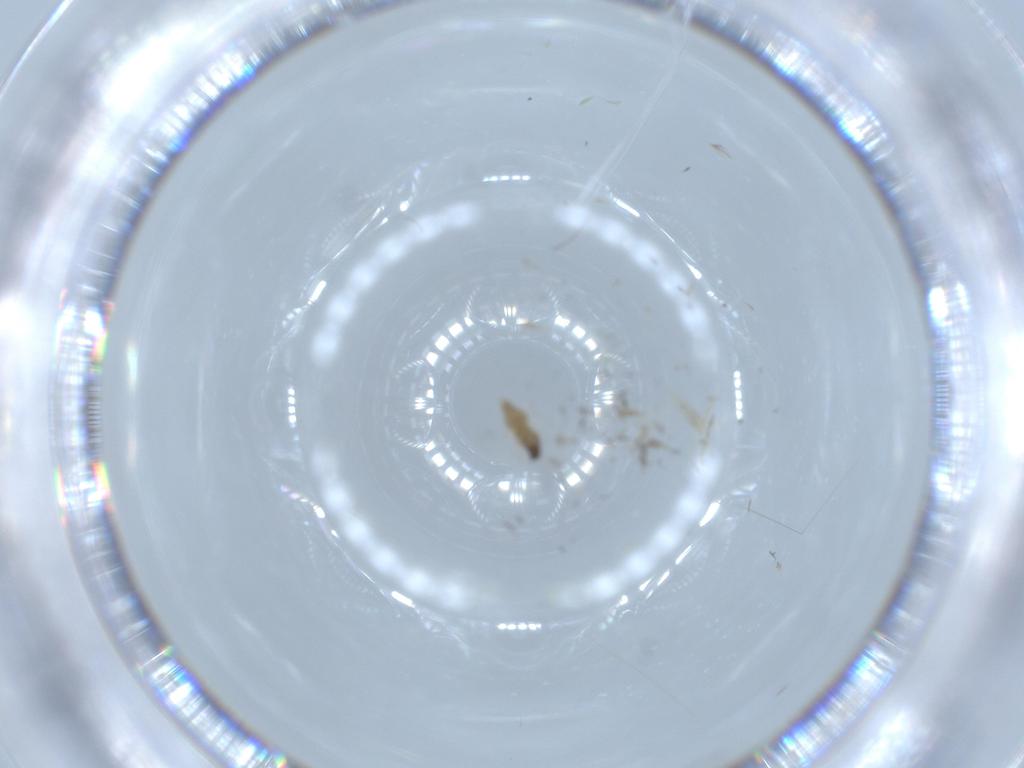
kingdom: Animalia
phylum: Arthropoda
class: Insecta
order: Diptera
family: Cecidomyiidae
